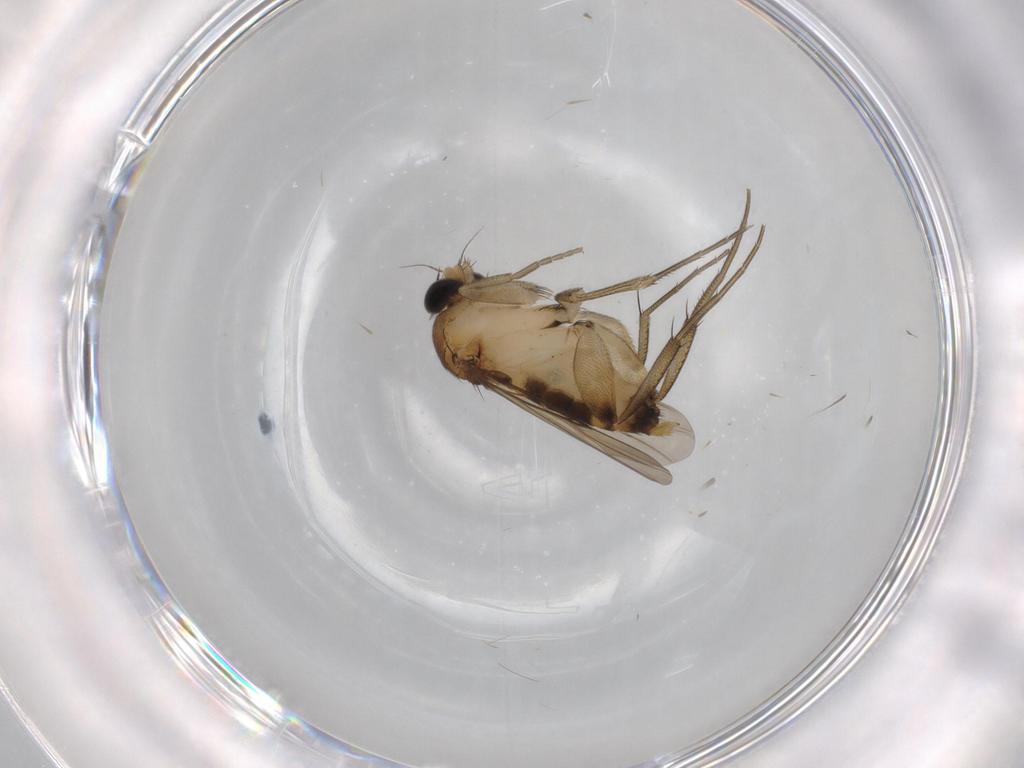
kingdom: Animalia
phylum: Arthropoda
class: Insecta
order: Diptera
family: Phoridae
